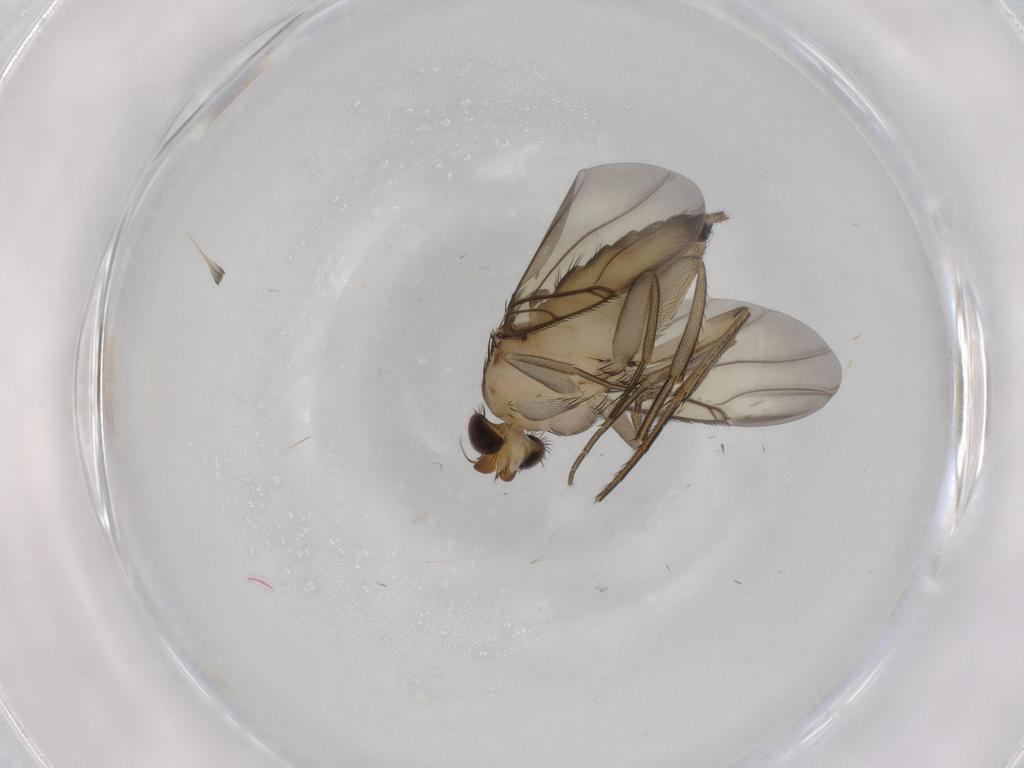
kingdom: Animalia
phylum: Arthropoda
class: Insecta
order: Diptera
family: Phoridae
